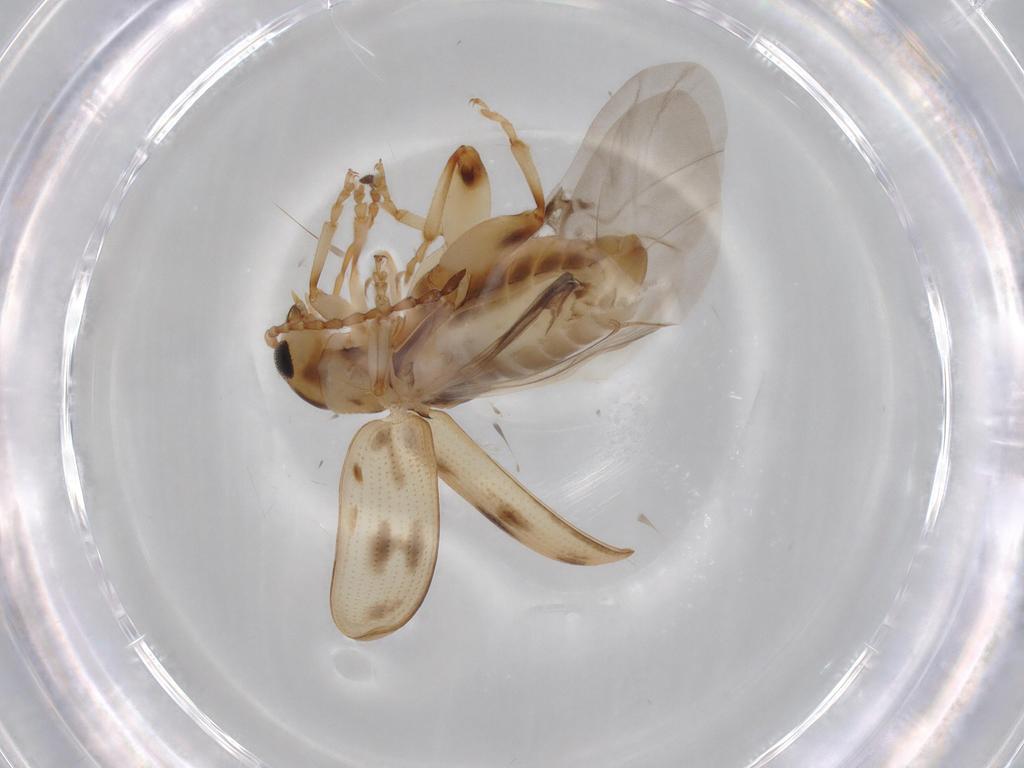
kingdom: Animalia
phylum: Arthropoda
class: Insecta
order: Coleoptera
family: Chrysomelidae
